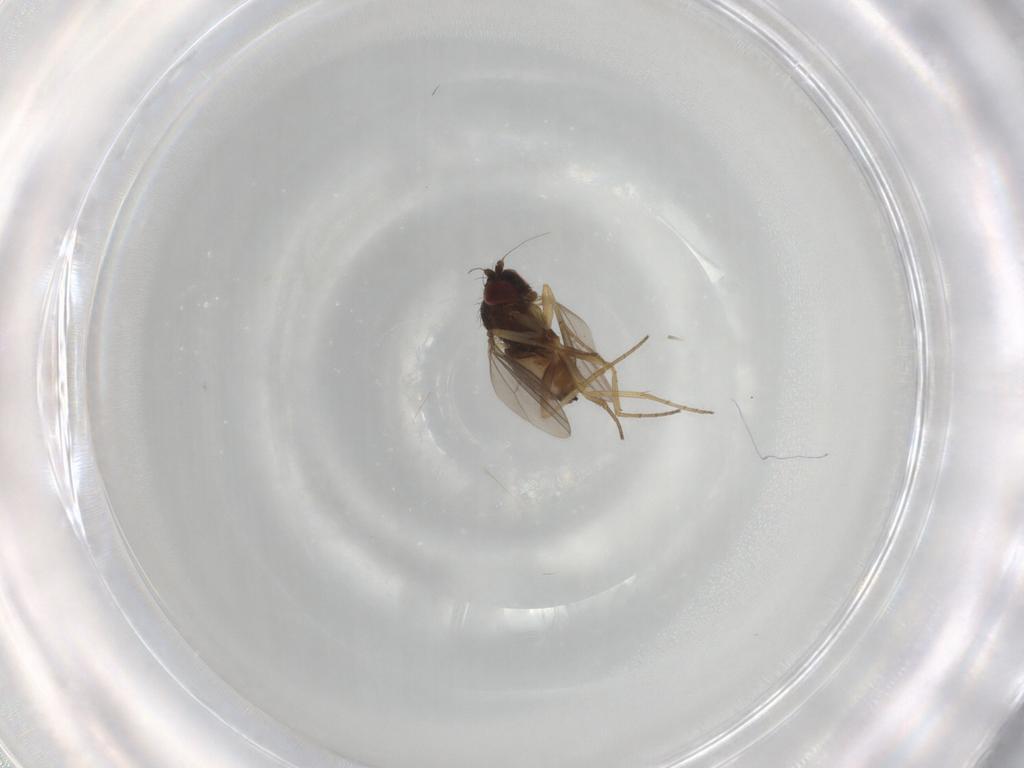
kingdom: Animalia
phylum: Arthropoda
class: Insecta
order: Diptera
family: Dolichopodidae
